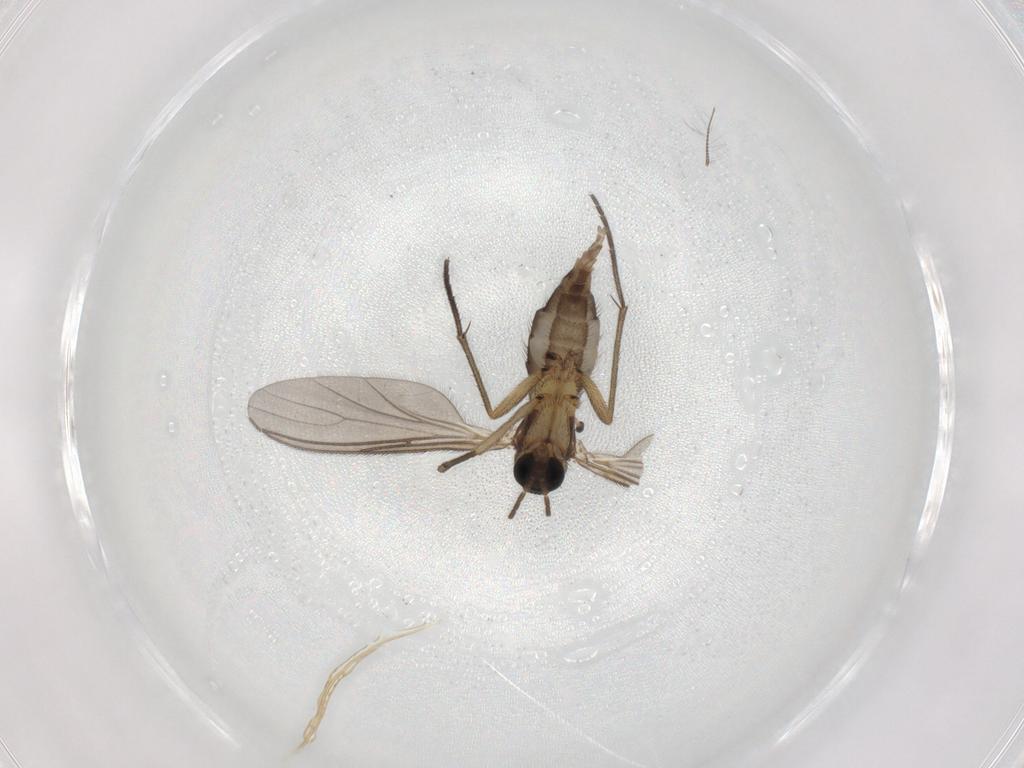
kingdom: Animalia
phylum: Arthropoda
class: Insecta
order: Diptera
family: Sciaridae
